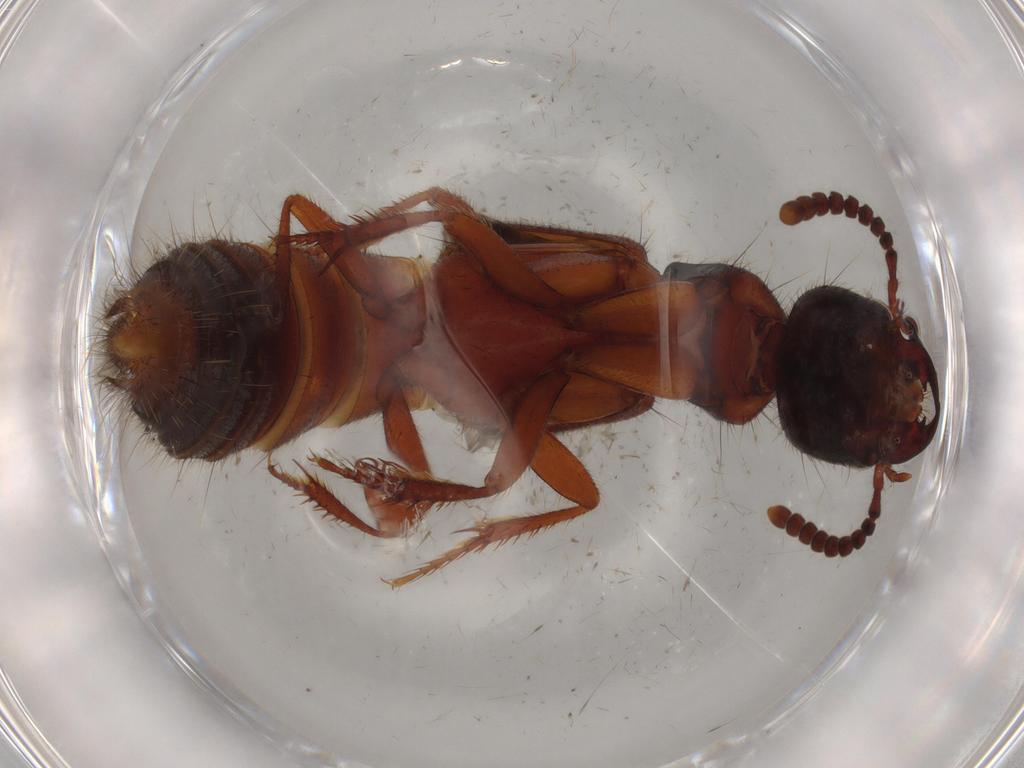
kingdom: Animalia
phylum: Arthropoda
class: Insecta
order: Coleoptera
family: Staphylinidae
